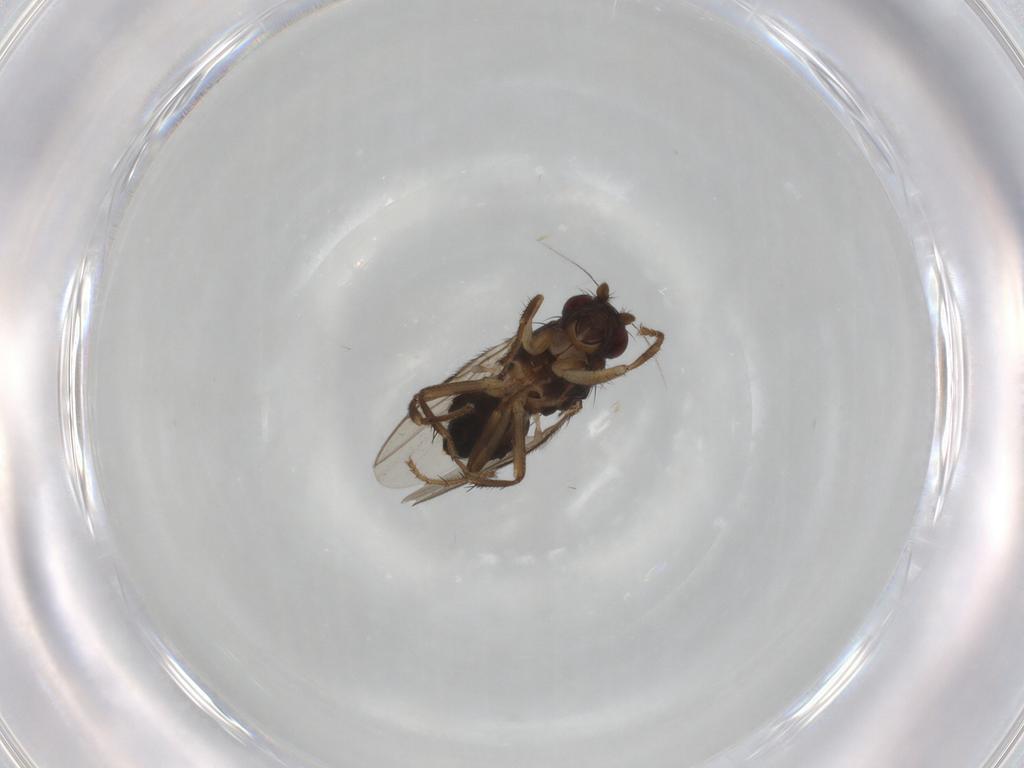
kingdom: Animalia
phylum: Arthropoda
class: Insecta
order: Diptera
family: Sphaeroceridae
